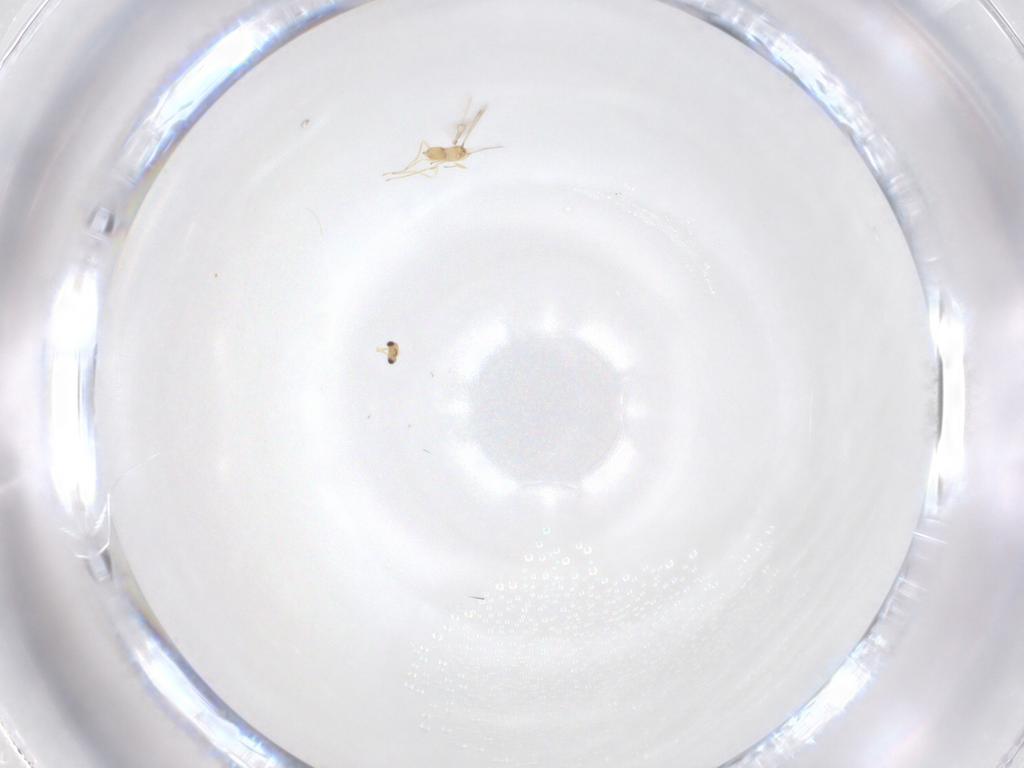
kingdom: Animalia
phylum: Arthropoda
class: Insecta
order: Hymenoptera
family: Mymaridae
